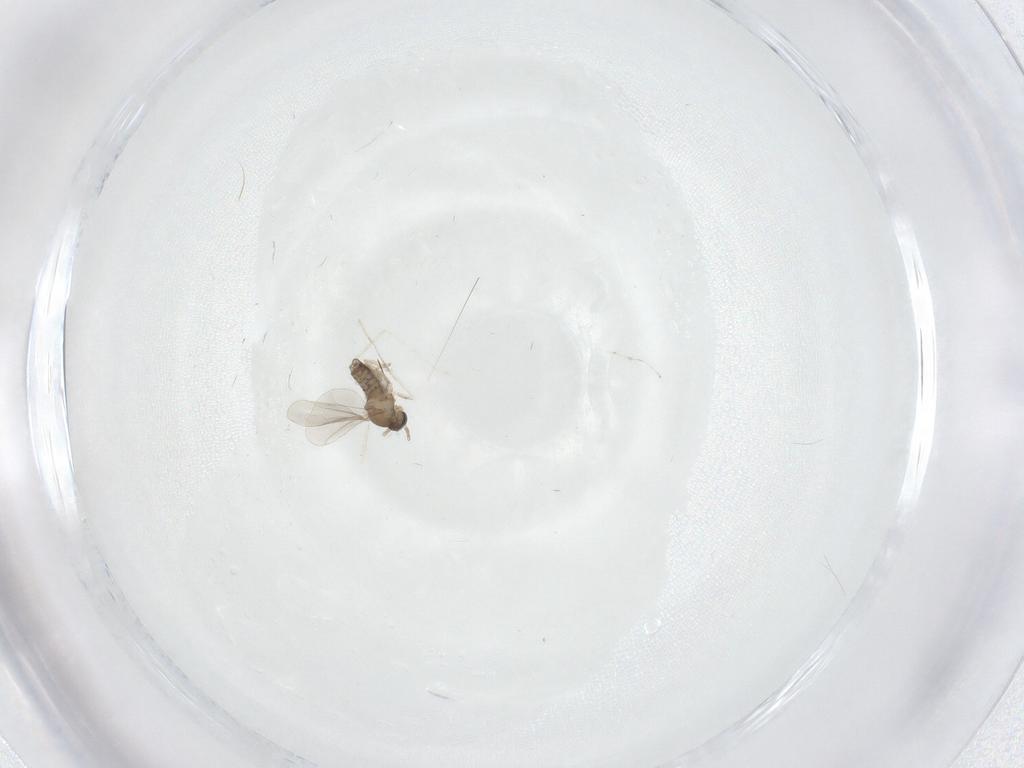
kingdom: Animalia
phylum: Arthropoda
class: Insecta
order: Diptera
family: Cecidomyiidae
